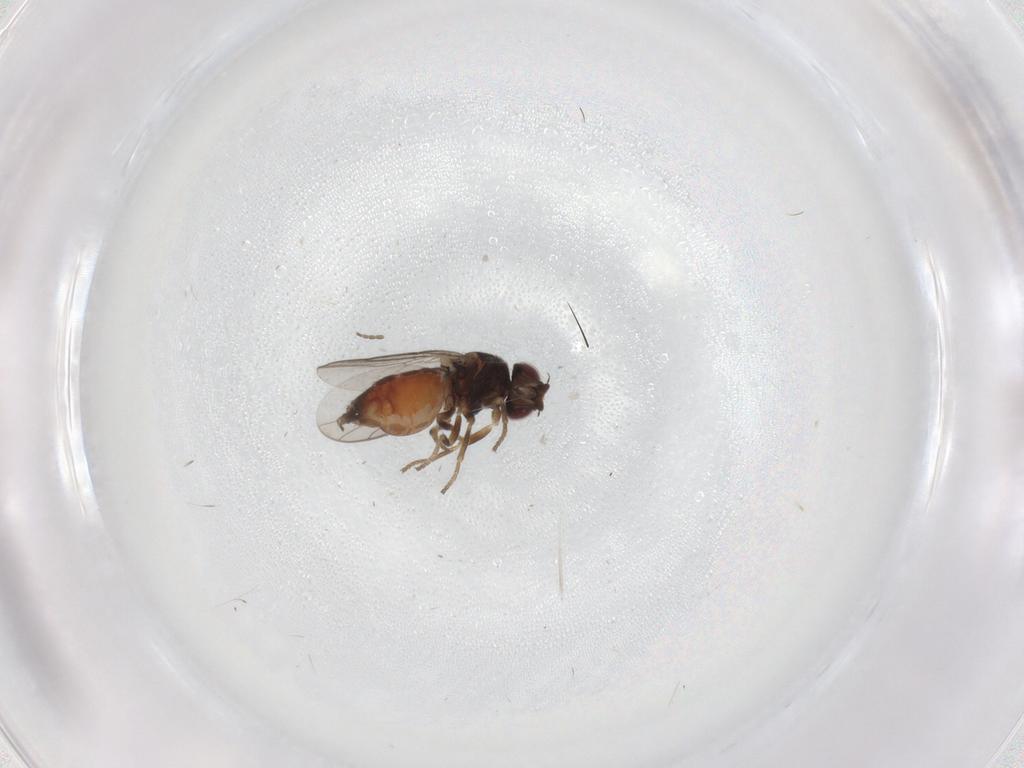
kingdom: Animalia
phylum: Arthropoda
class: Insecta
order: Diptera
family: Chloropidae
